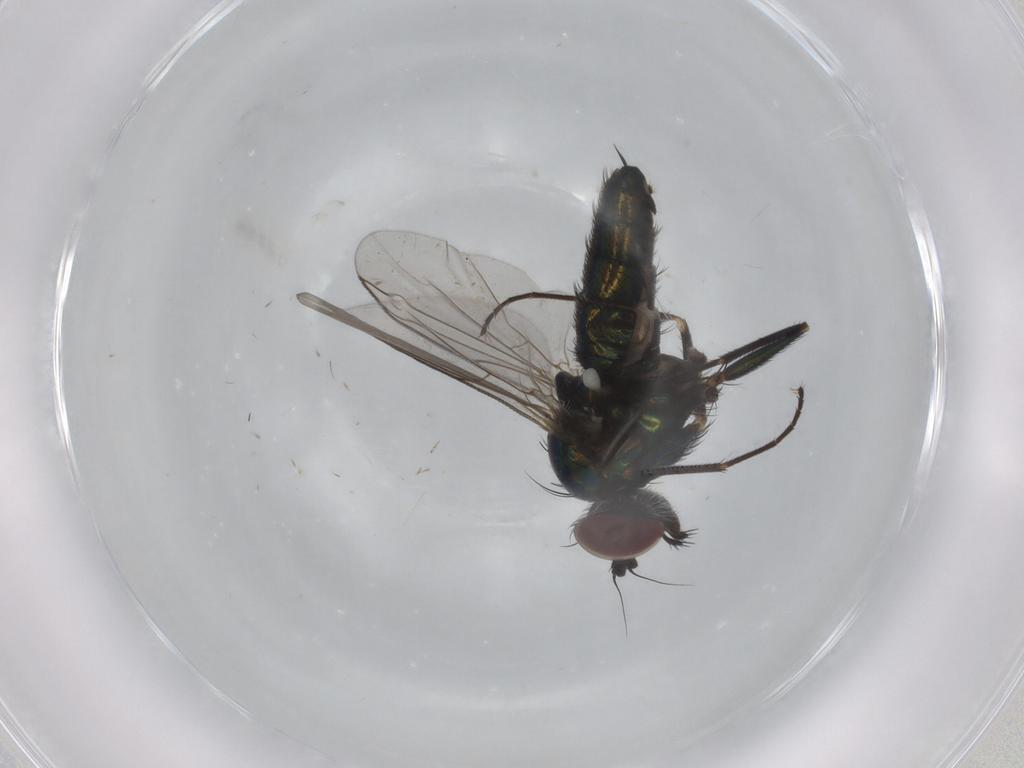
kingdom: Animalia
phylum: Arthropoda
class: Insecta
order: Diptera
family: Dolichopodidae
